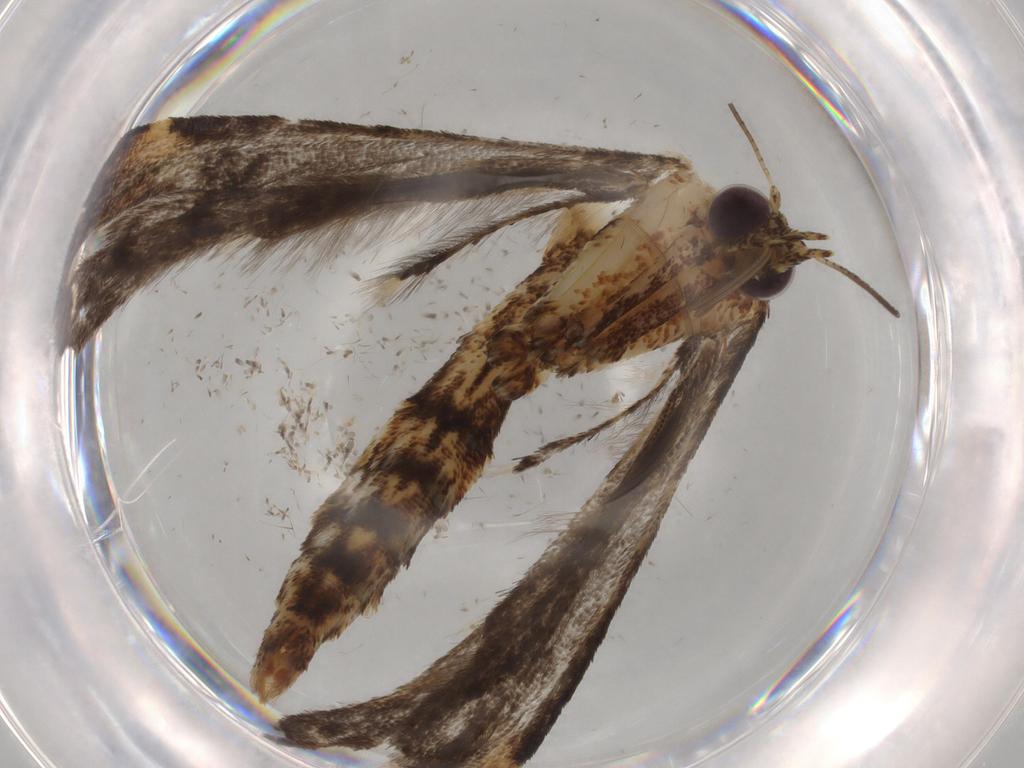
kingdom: Animalia
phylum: Arthropoda
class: Insecta
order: Lepidoptera
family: Pterophoridae
